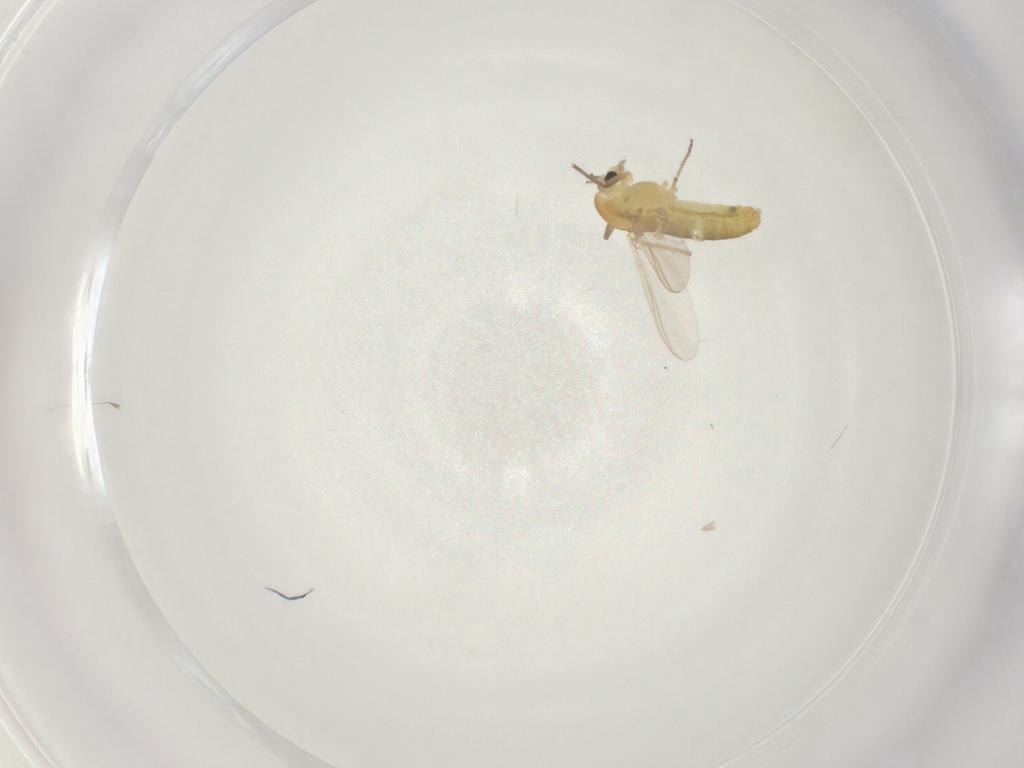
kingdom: Animalia
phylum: Arthropoda
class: Insecta
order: Diptera
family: Chironomidae
